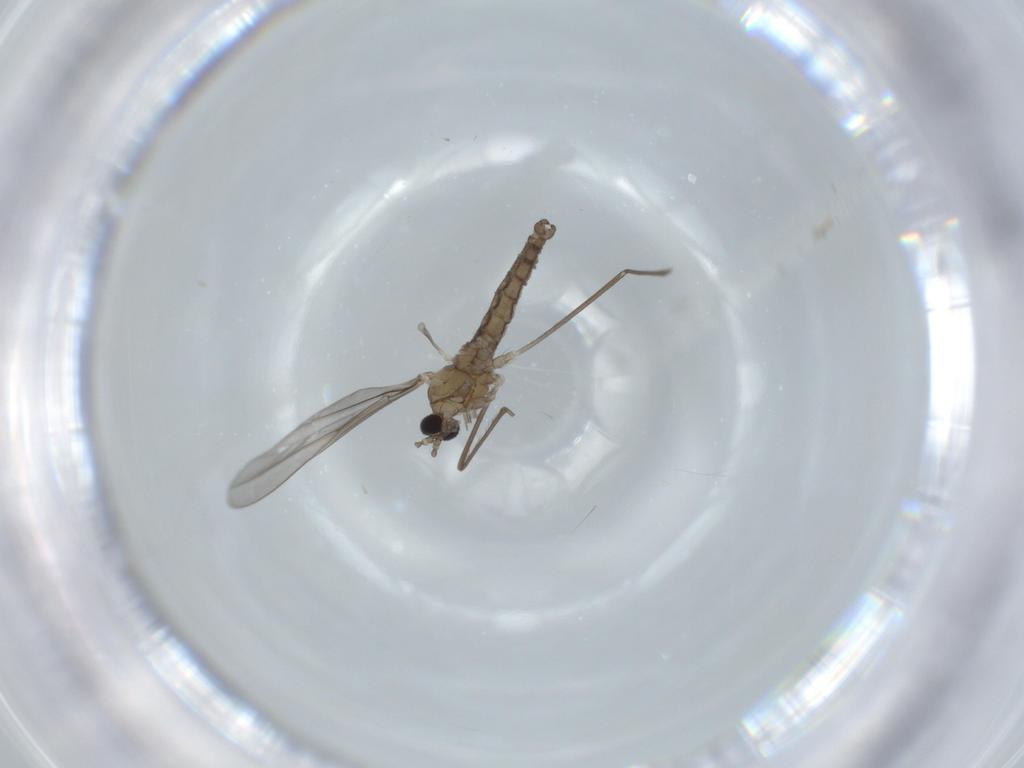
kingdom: Animalia
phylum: Arthropoda
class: Insecta
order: Diptera
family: Cecidomyiidae
